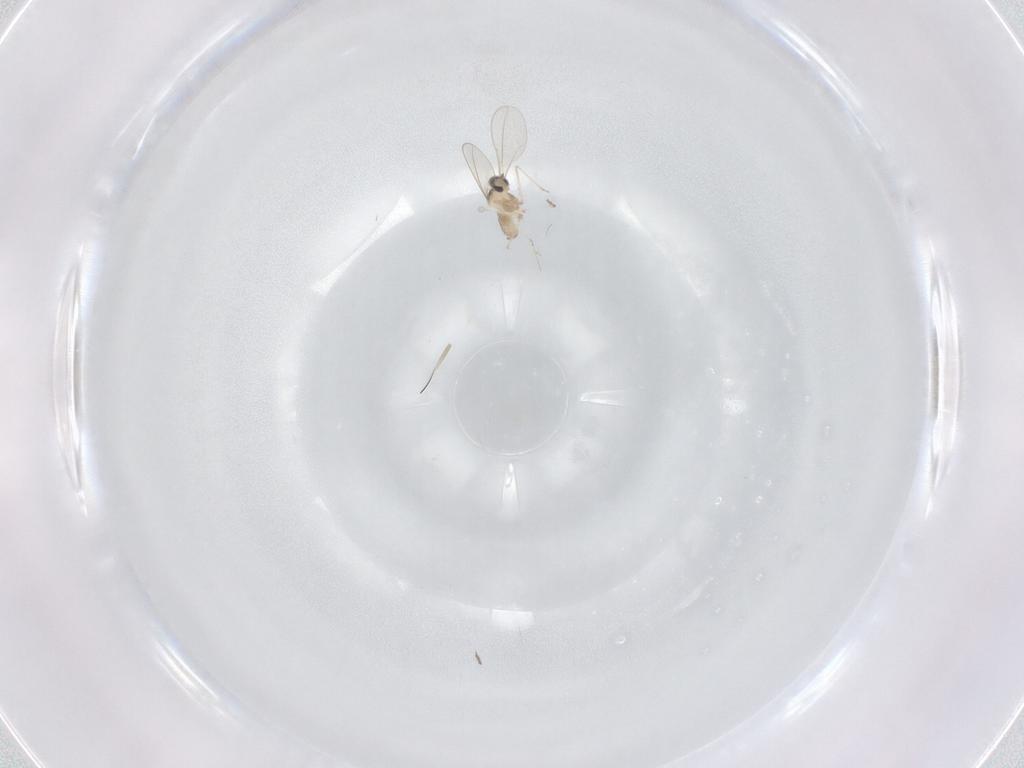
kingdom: Animalia
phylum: Arthropoda
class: Insecta
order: Diptera
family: Cecidomyiidae
